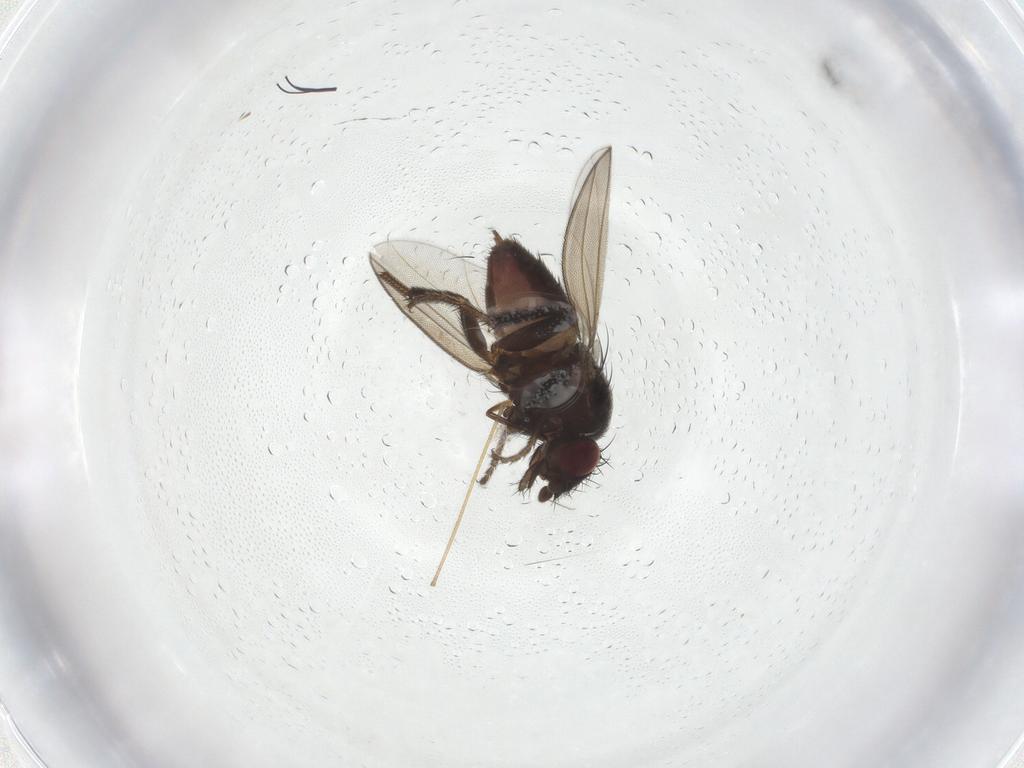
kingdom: Animalia
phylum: Arthropoda
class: Insecta
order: Diptera
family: Milichiidae
